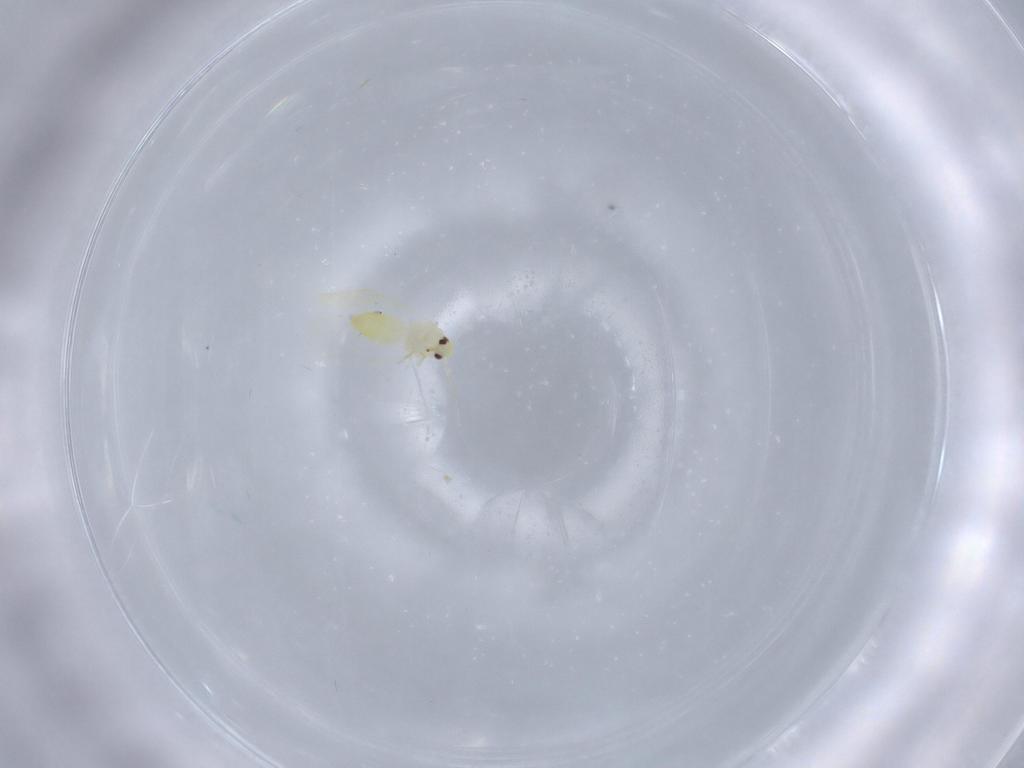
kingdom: Animalia
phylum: Arthropoda
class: Insecta
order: Hemiptera
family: Aleyrodidae
